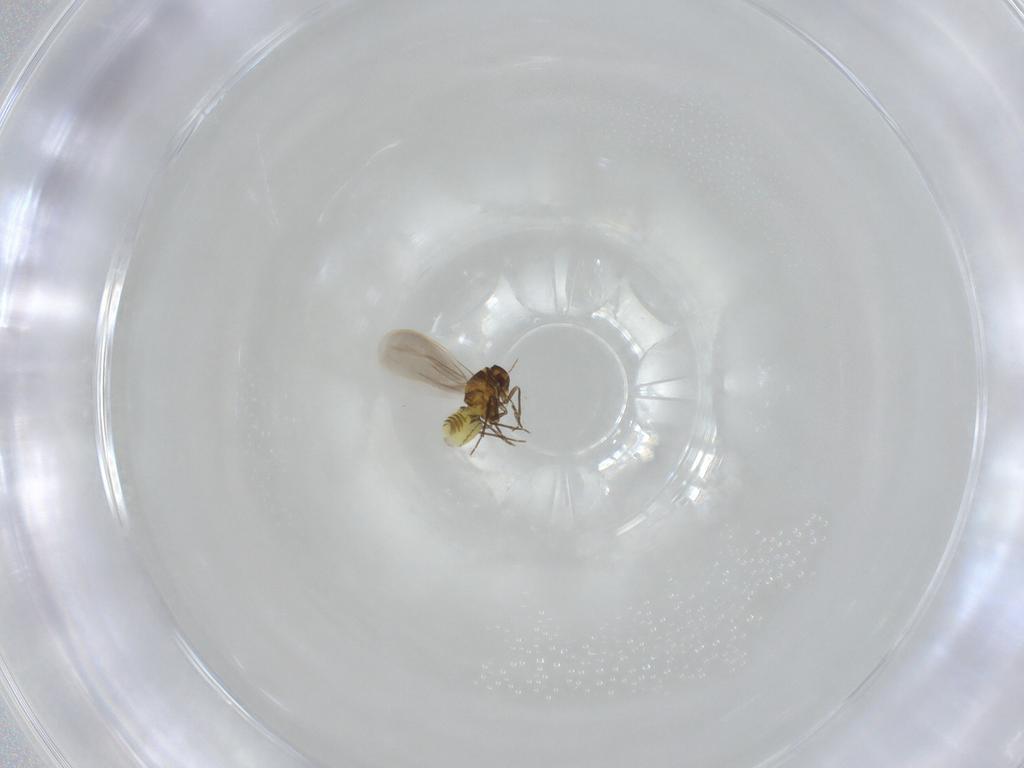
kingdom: Animalia
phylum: Arthropoda
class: Insecta
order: Hemiptera
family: Aleyrodidae
